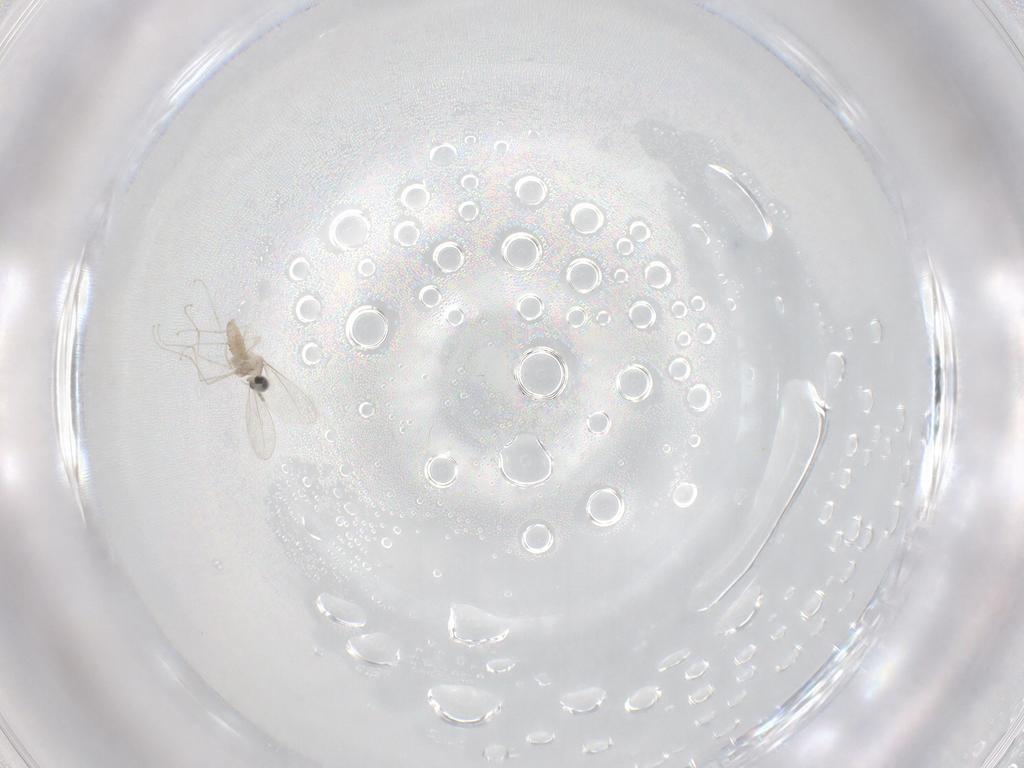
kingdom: Animalia
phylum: Arthropoda
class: Insecta
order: Diptera
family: Cecidomyiidae
